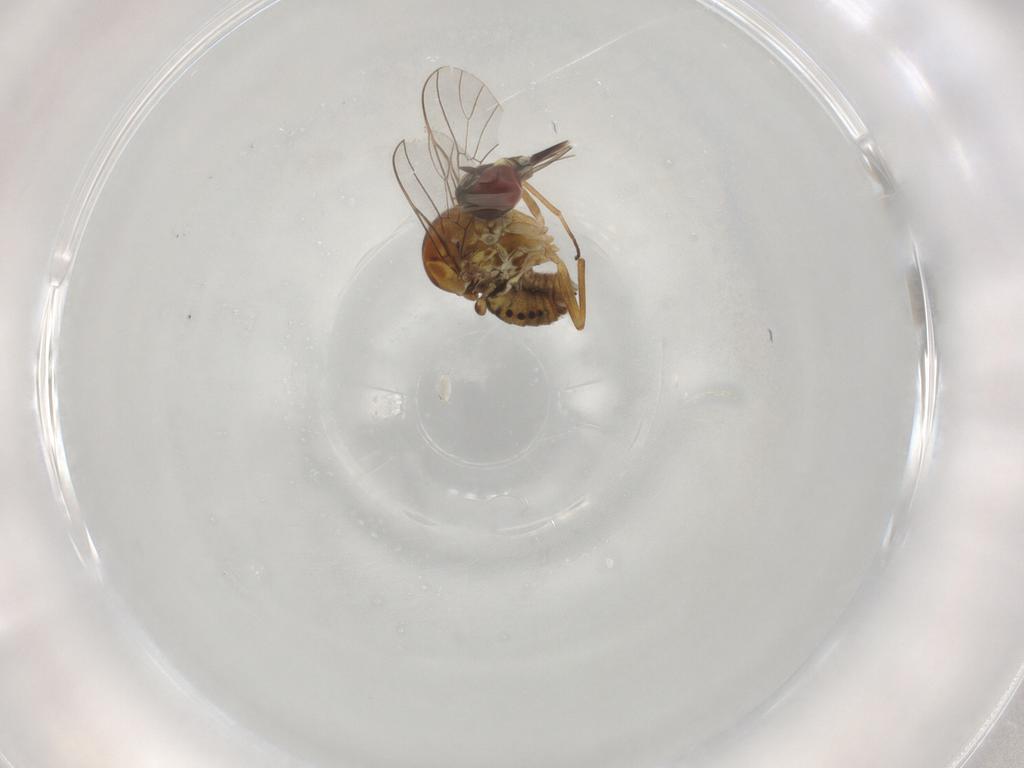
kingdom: Animalia
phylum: Arthropoda
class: Insecta
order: Diptera
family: Bombyliidae
